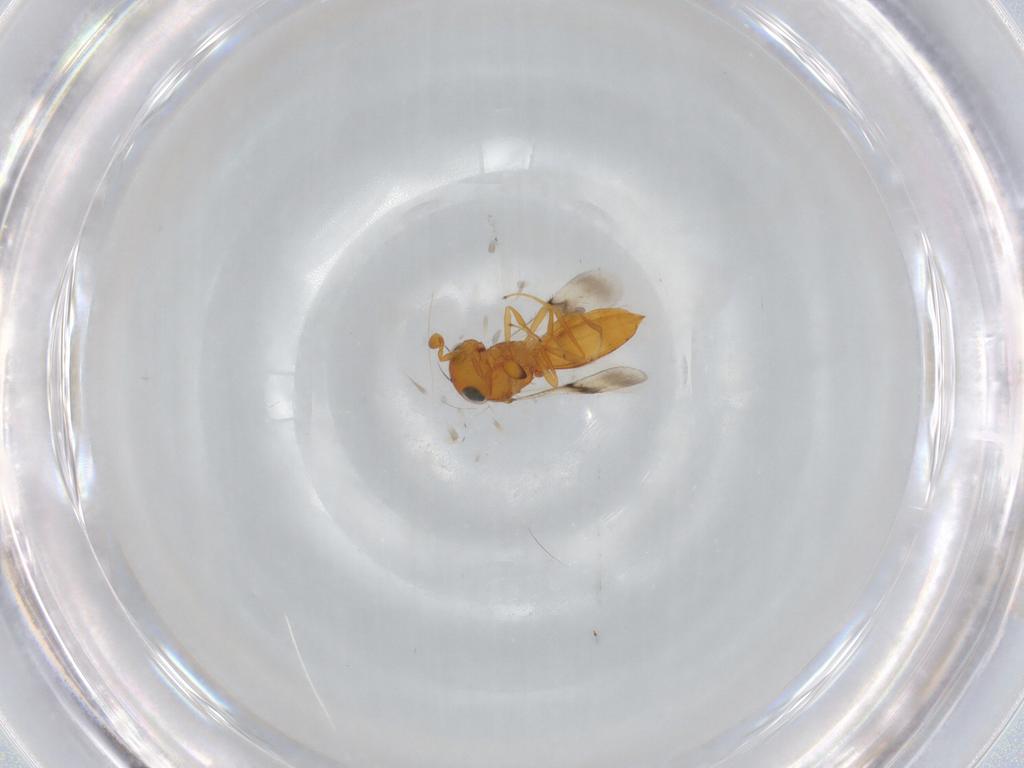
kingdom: Animalia
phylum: Arthropoda
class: Insecta
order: Hymenoptera
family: Scelionidae
